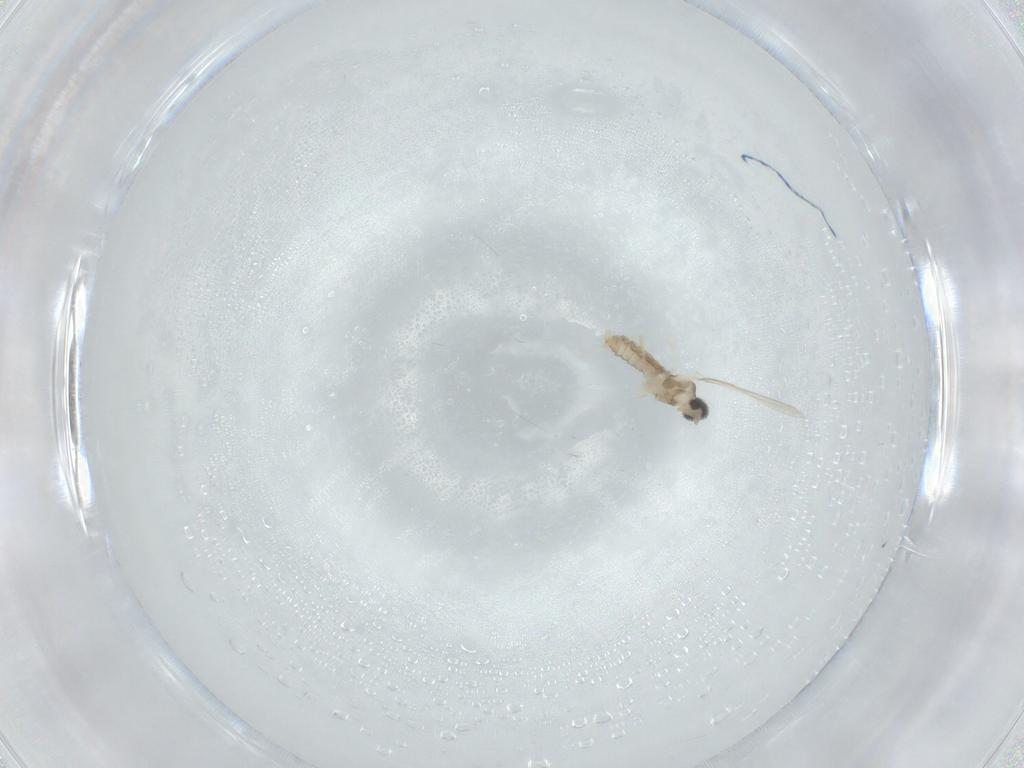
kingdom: Animalia
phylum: Arthropoda
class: Insecta
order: Diptera
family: Cecidomyiidae
